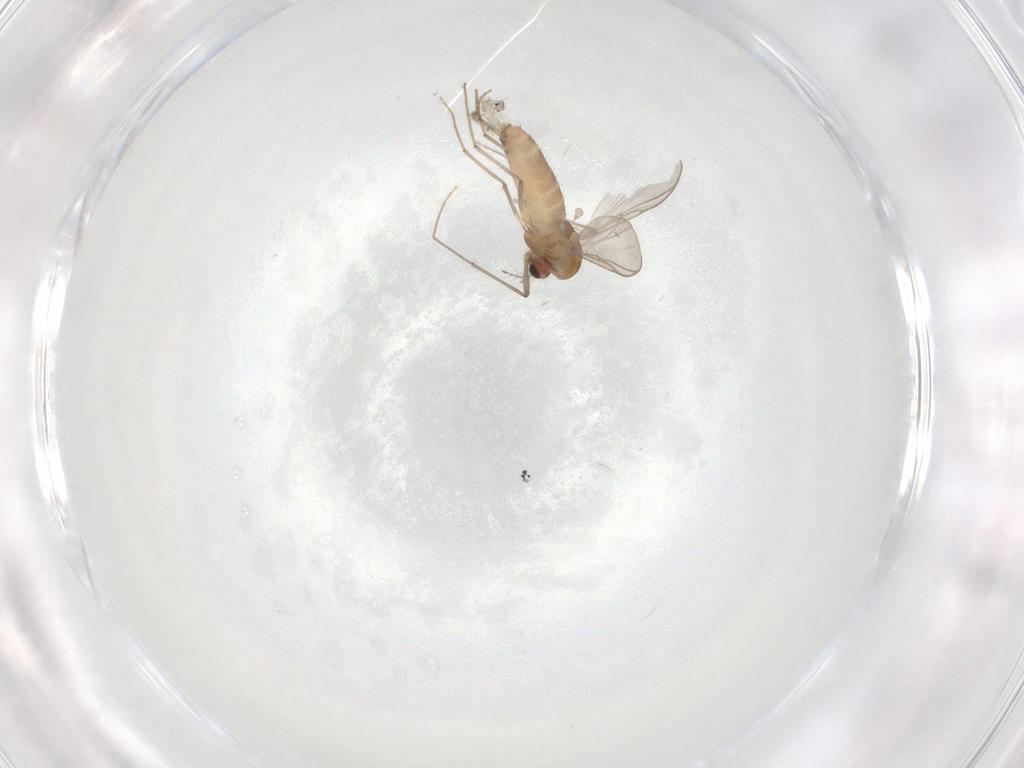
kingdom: Animalia
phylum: Arthropoda
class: Insecta
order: Diptera
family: Chironomidae
